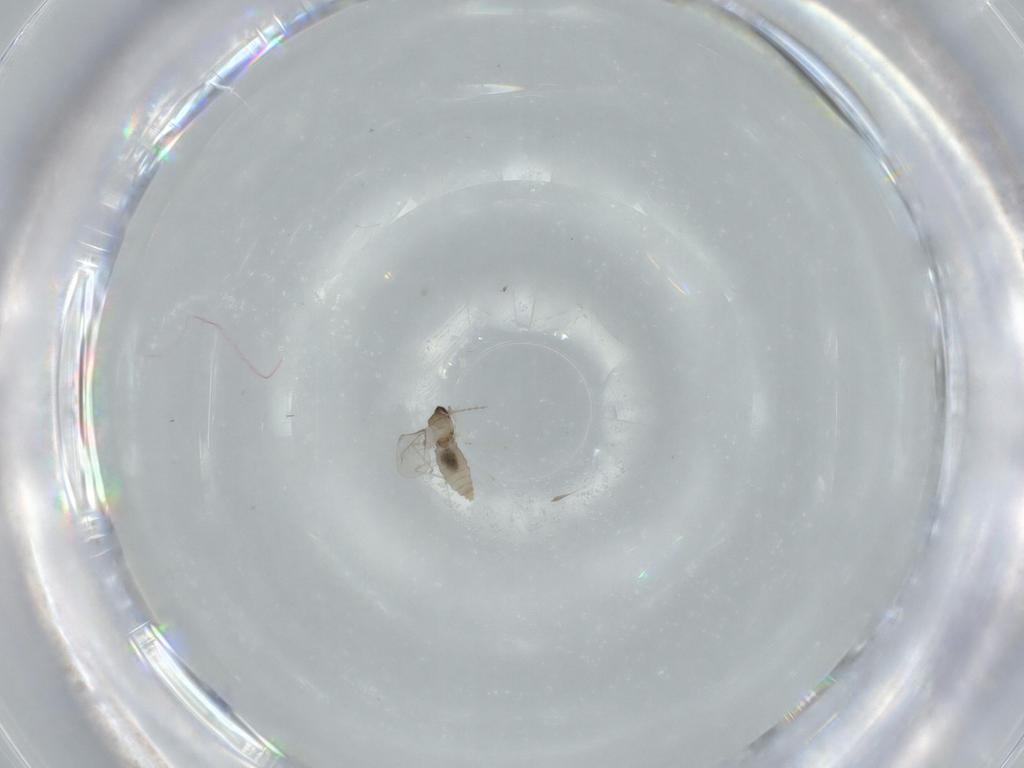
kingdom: Animalia
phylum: Arthropoda
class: Insecta
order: Diptera
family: Cecidomyiidae
